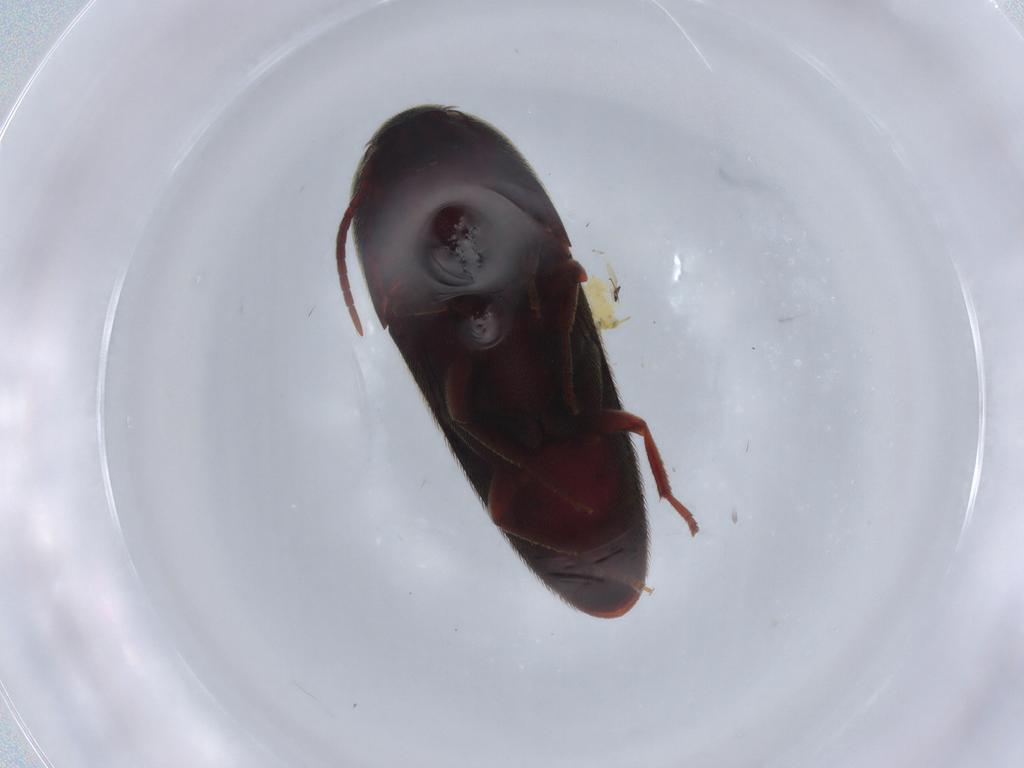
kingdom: Animalia
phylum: Arthropoda
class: Insecta
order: Coleoptera
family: Eucnemidae
